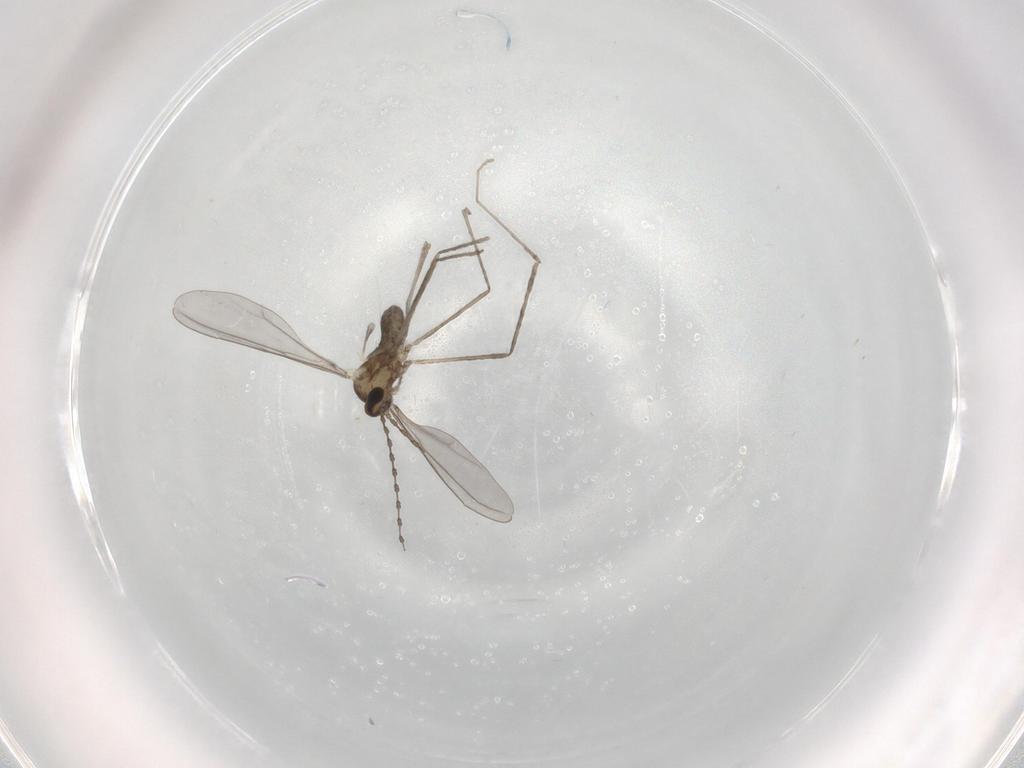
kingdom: Animalia
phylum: Arthropoda
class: Insecta
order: Diptera
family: Cecidomyiidae
